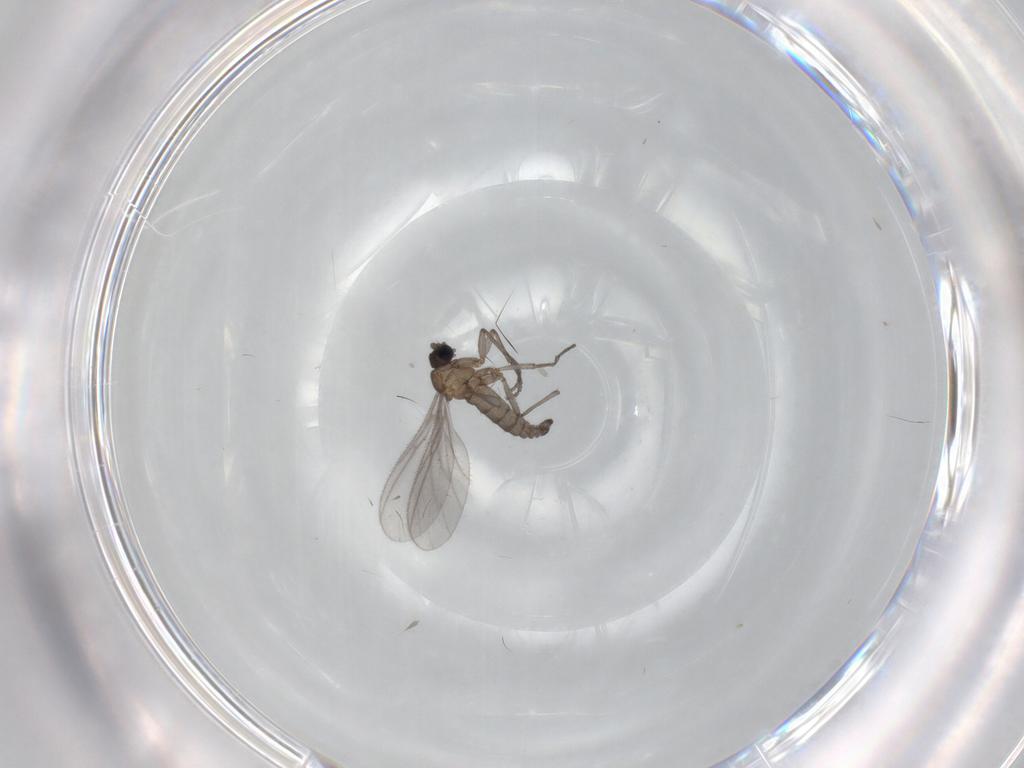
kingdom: Animalia
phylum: Arthropoda
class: Insecta
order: Diptera
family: Sciaridae
